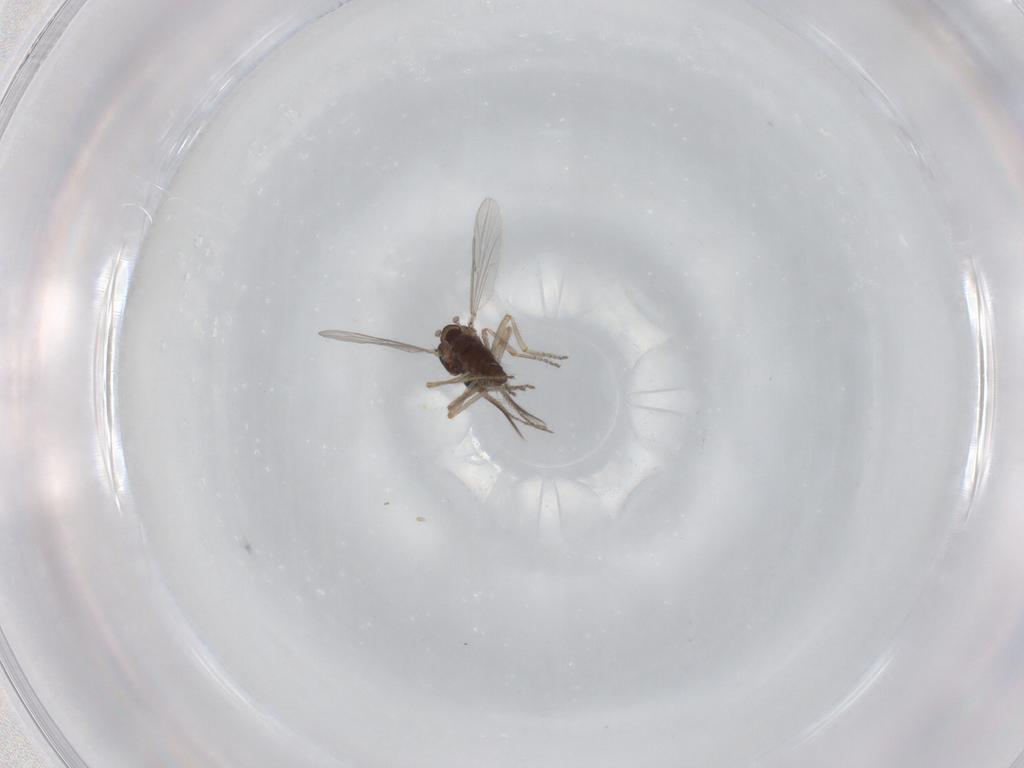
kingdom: Animalia
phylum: Arthropoda
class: Insecta
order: Diptera
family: Ceratopogonidae
